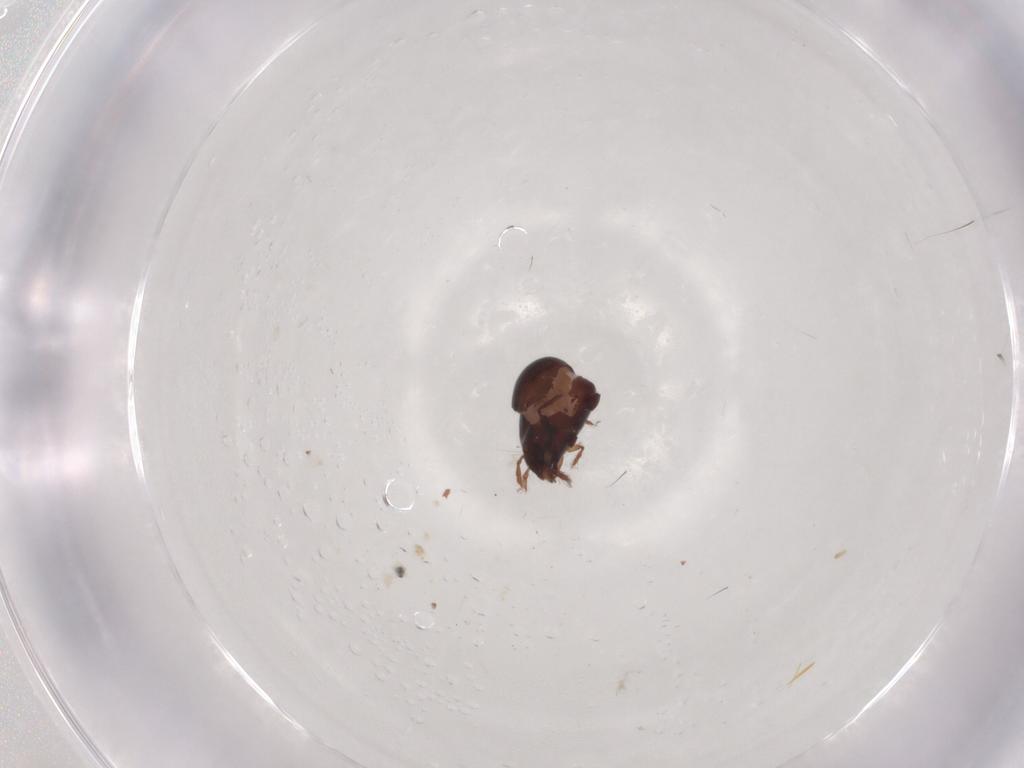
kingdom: Animalia
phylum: Arthropoda
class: Arachnida
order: Sarcoptiformes
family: Humerobatidae
